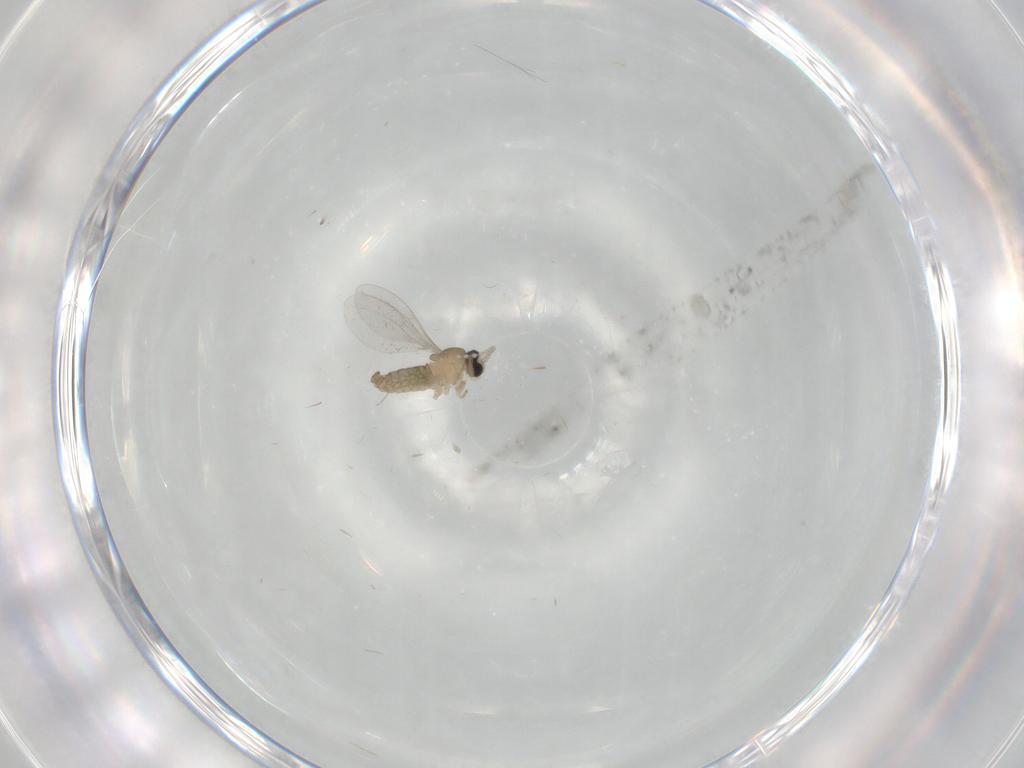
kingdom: Animalia
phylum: Arthropoda
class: Insecta
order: Diptera
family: Cecidomyiidae
